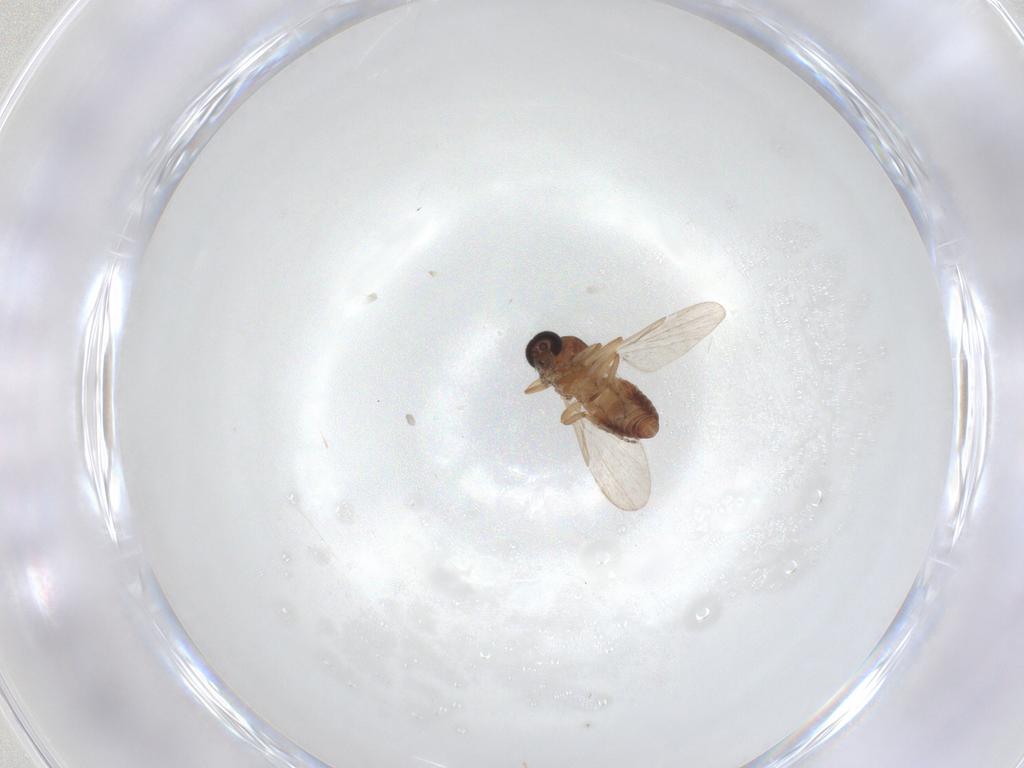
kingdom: Animalia
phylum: Arthropoda
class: Insecta
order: Diptera
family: Ceratopogonidae
